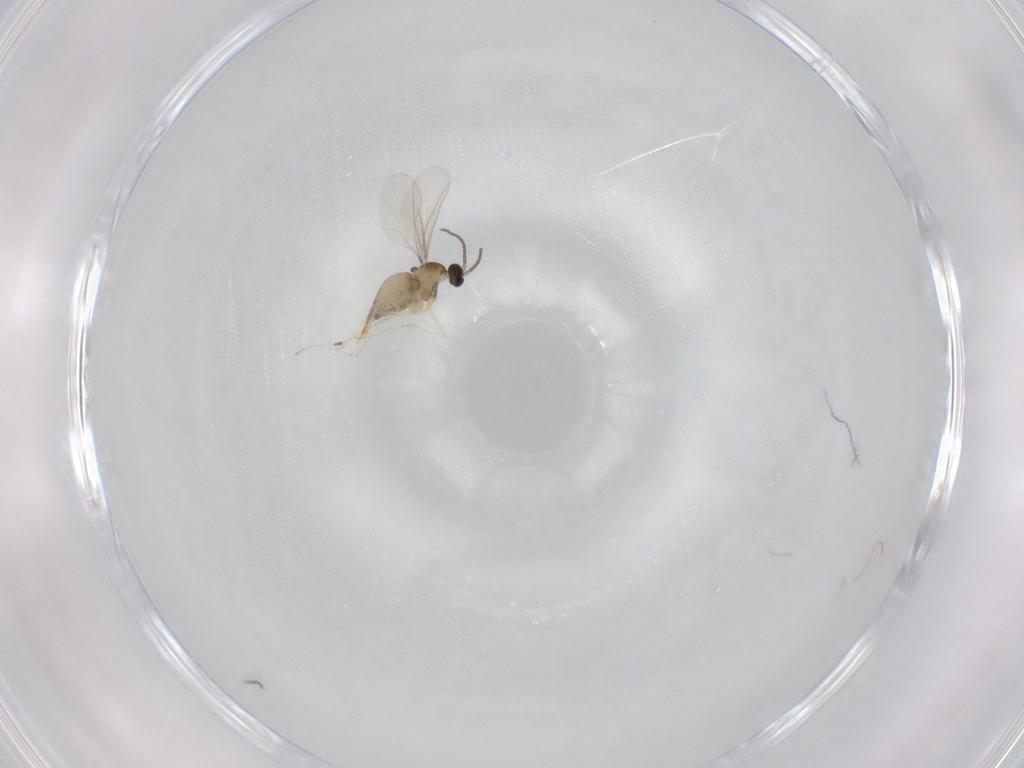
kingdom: Animalia
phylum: Arthropoda
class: Insecta
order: Diptera
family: Cecidomyiidae
